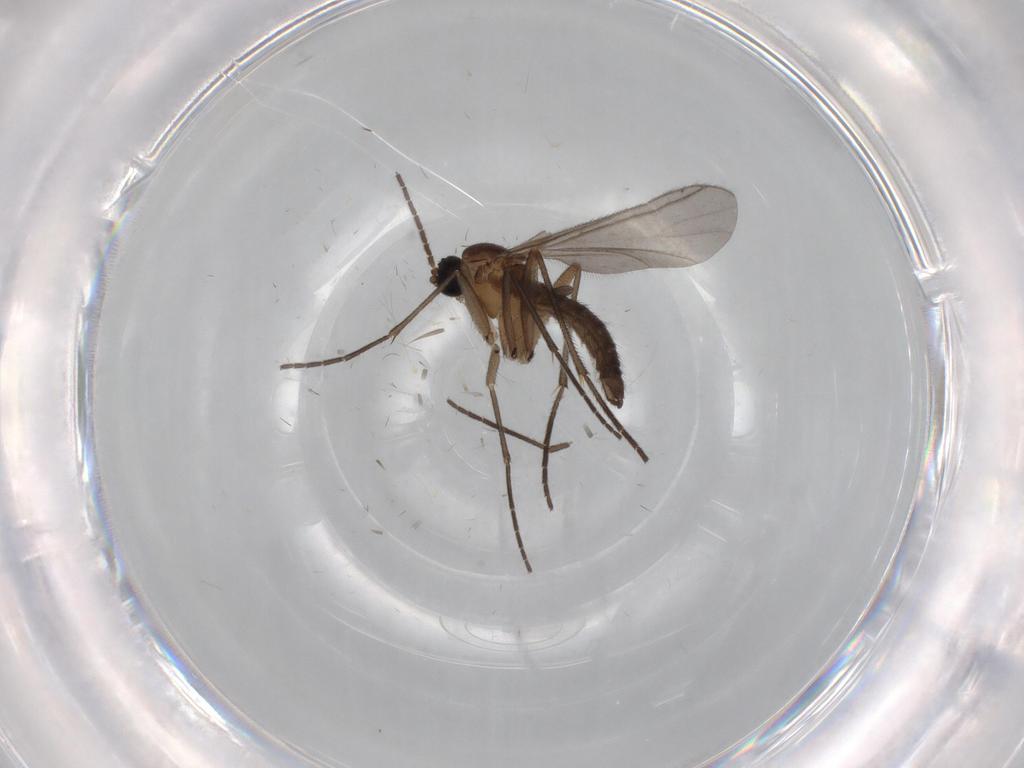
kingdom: Animalia
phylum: Arthropoda
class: Insecta
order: Diptera
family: Sciaridae
